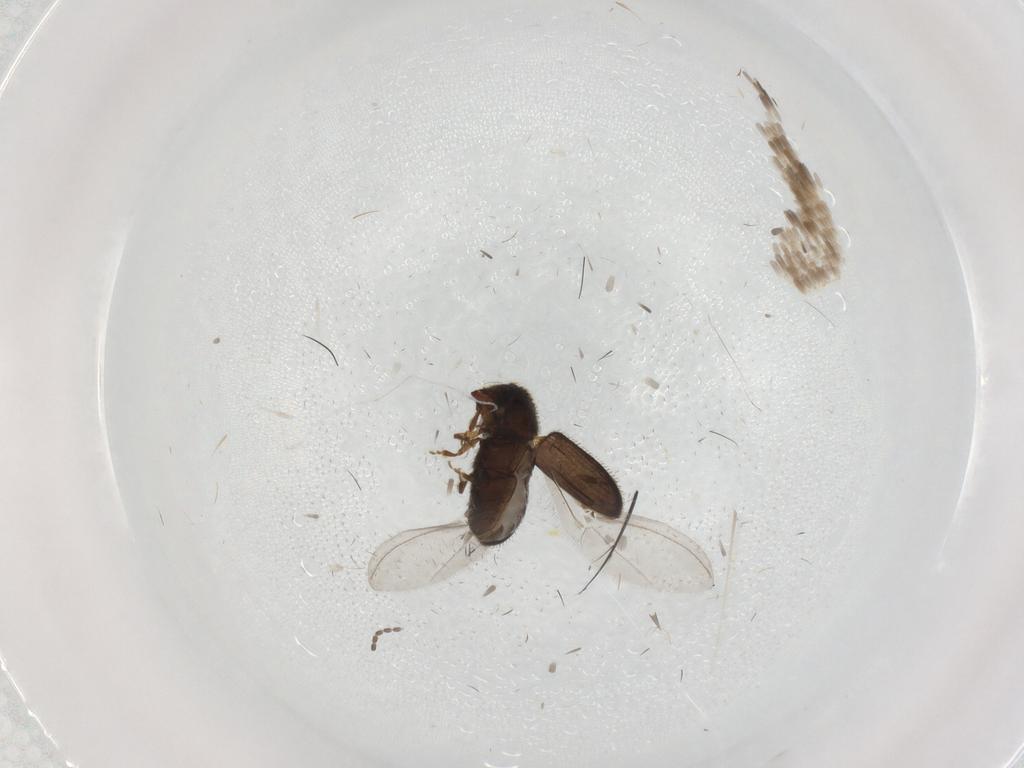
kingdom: Animalia
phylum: Arthropoda
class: Insecta
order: Coleoptera
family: Curculionidae
